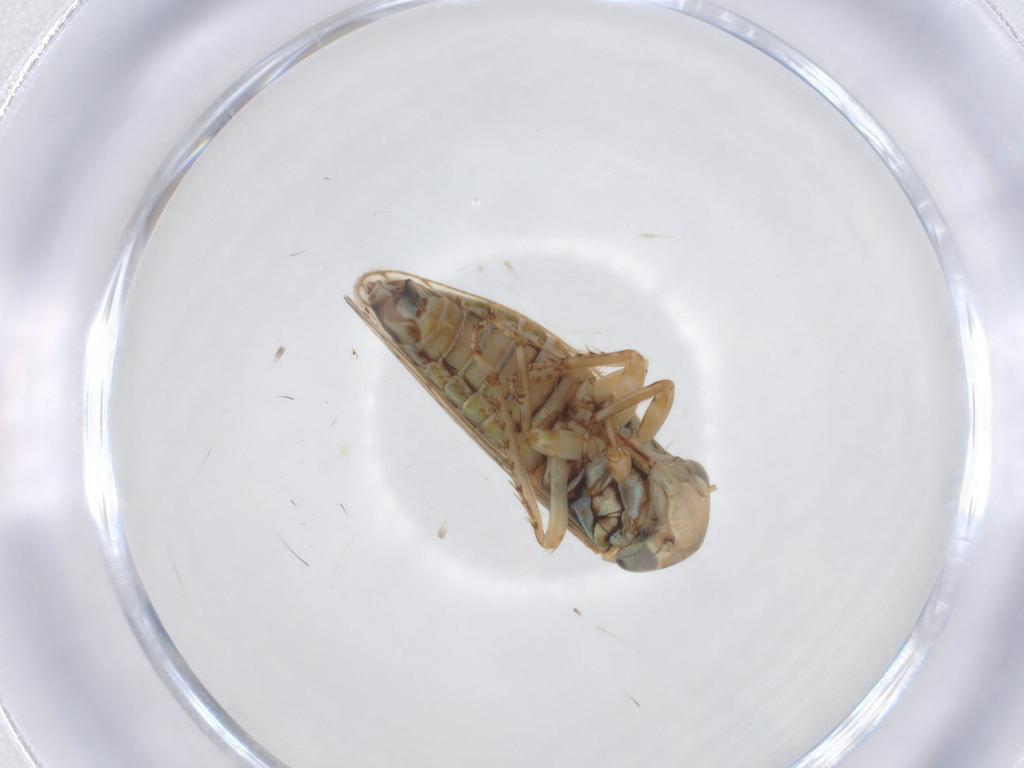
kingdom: Animalia
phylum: Arthropoda
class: Insecta
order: Hemiptera
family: Cicadellidae
